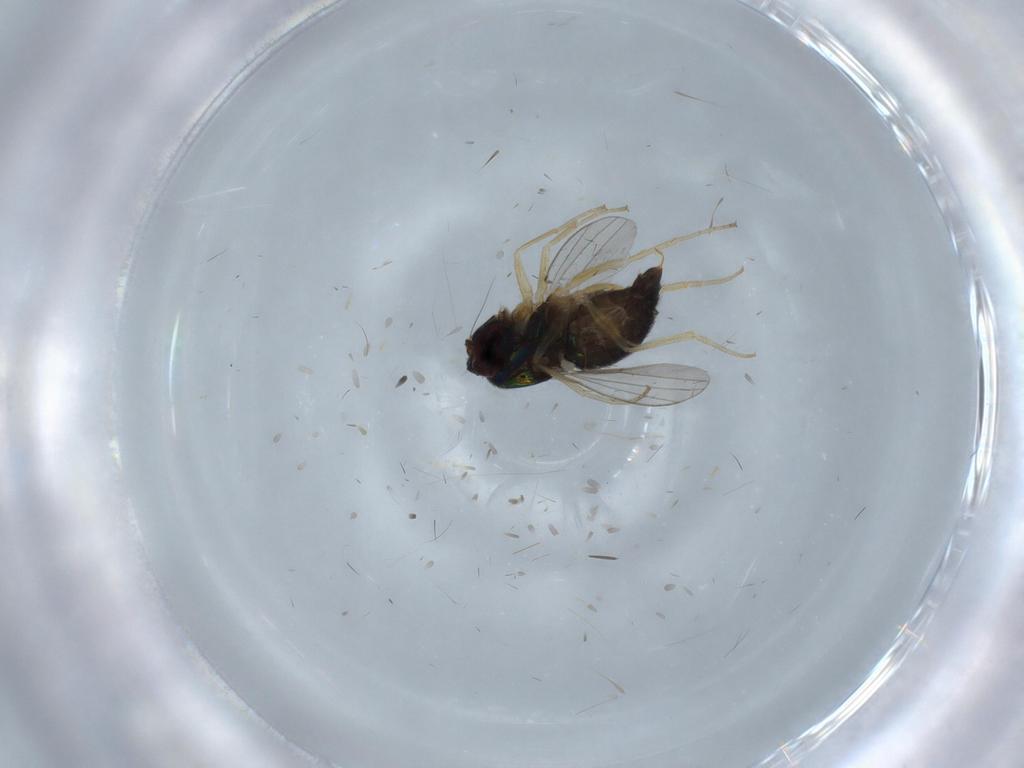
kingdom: Animalia
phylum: Arthropoda
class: Insecta
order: Diptera
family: Dolichopodidae
